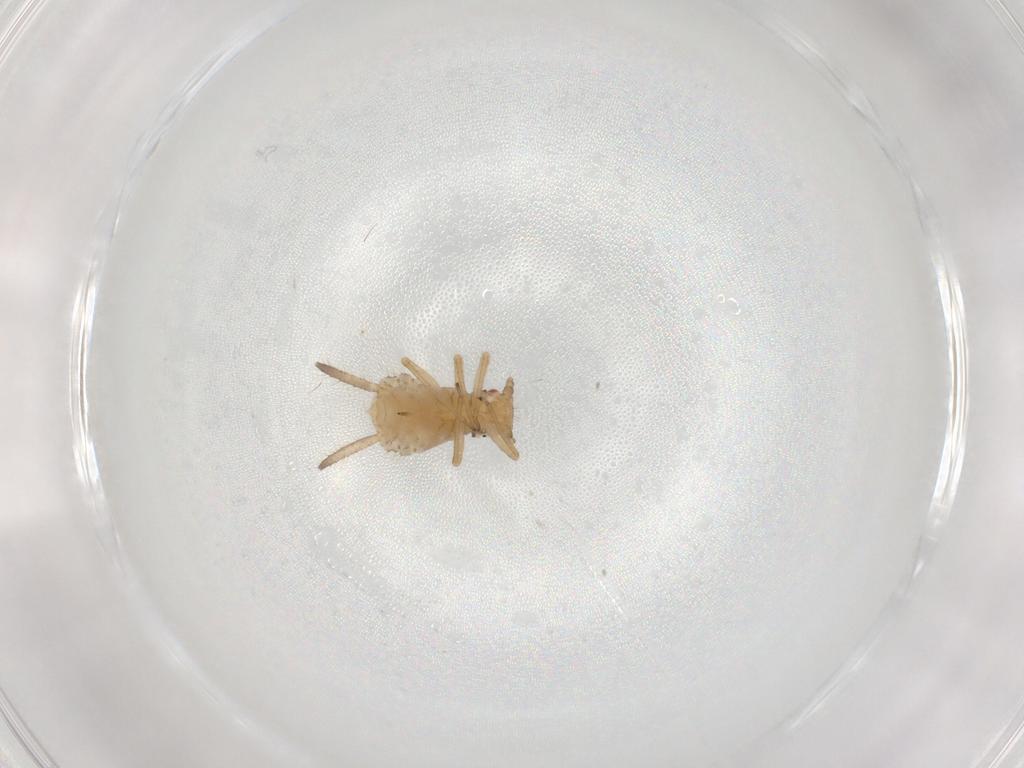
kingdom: Animalia
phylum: Arthropoda
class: Insecta
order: Hemiptera
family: Aphididae
